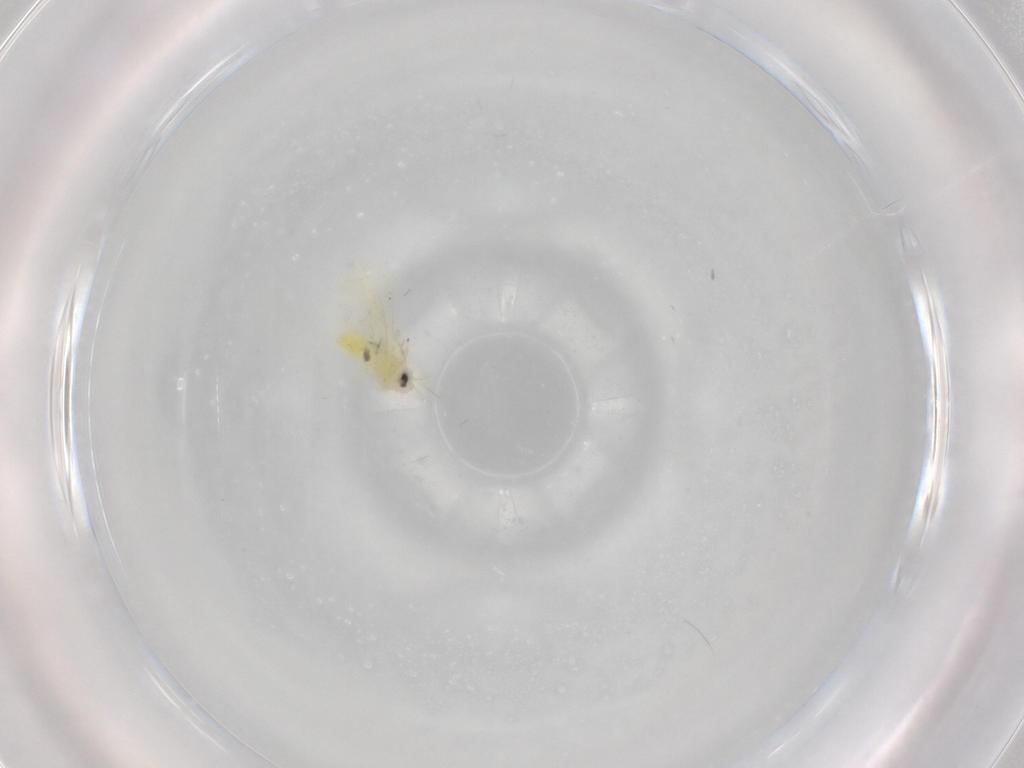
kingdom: Animalia
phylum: Arthropoda
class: Insecta
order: Hemiptera
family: Aleyrodidae
